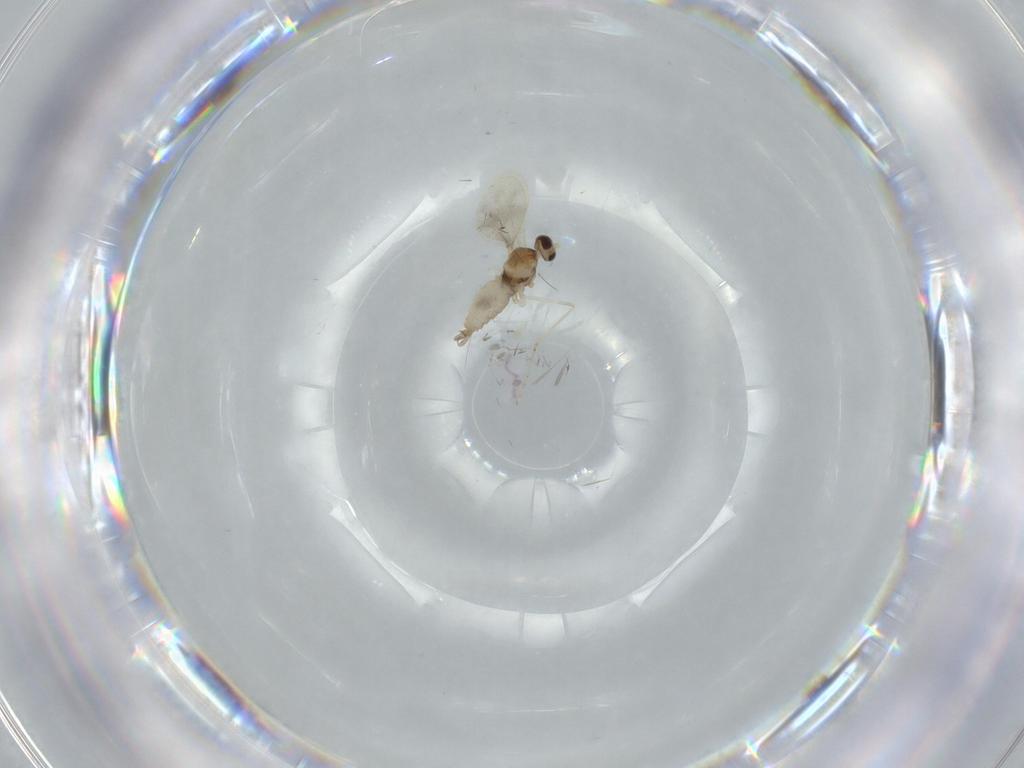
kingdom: Animalia
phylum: Arthropoda
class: Insecta
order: Diptera
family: Cecidomyiidae
